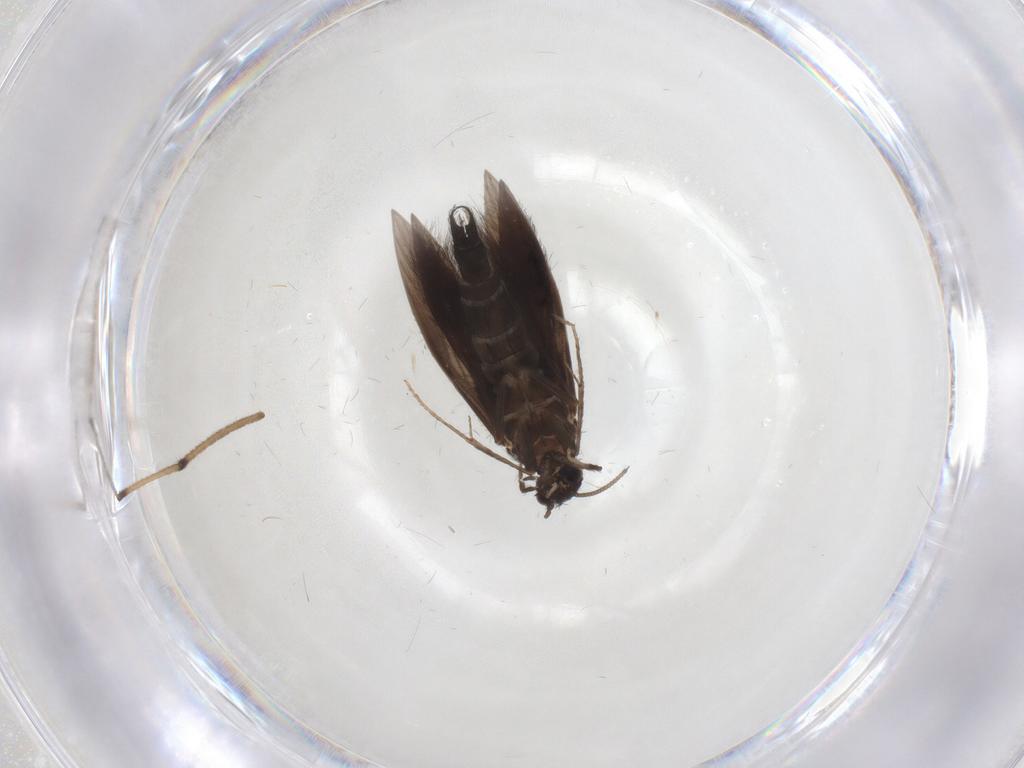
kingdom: Animalia
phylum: Arthropoda
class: Insecta
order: Trichoptera
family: Hydroptilidae
